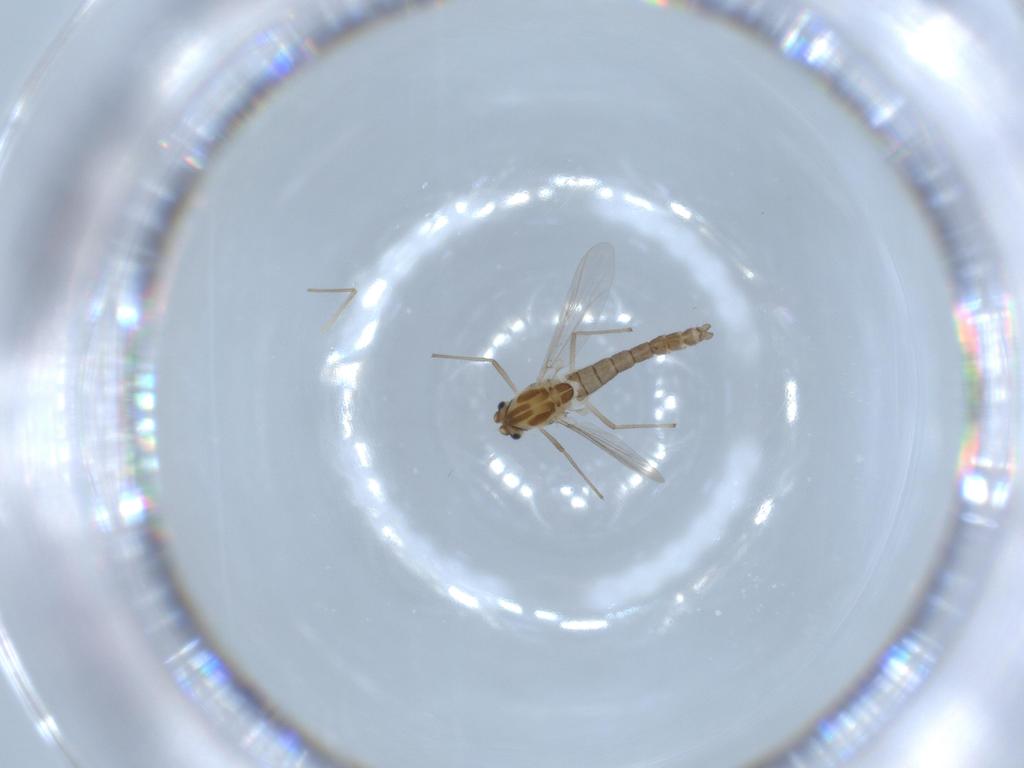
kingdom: Animalia
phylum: Arthropoda
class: Insecta
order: Diptera
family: Chironomidae
